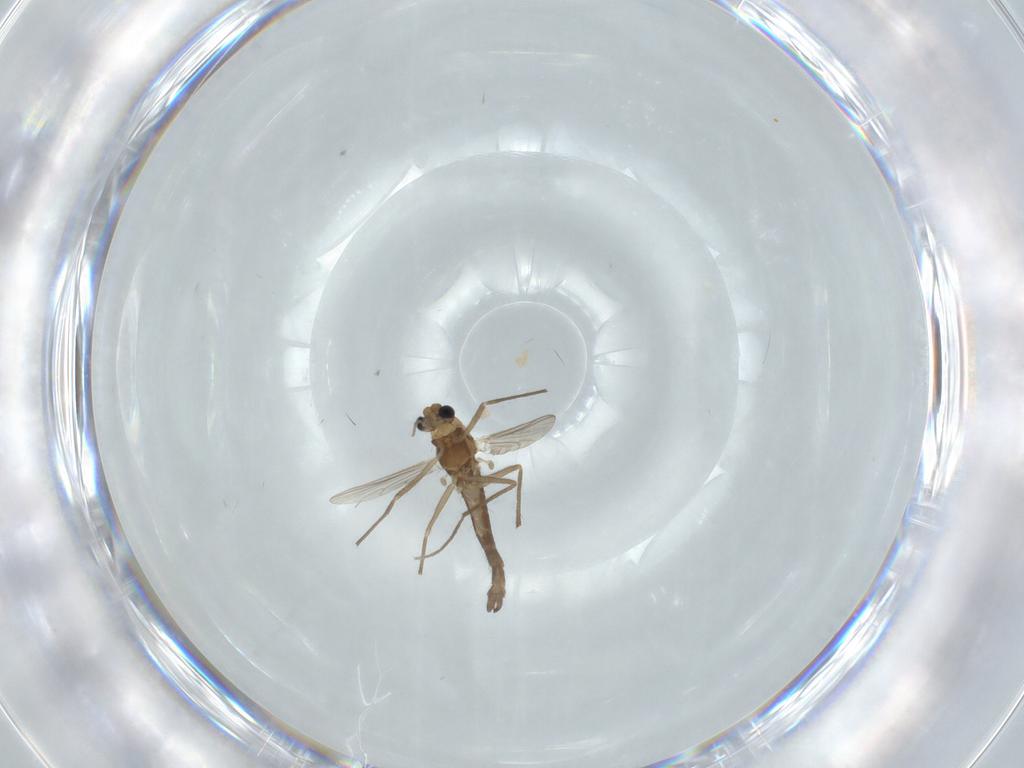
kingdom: Animalia
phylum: Arthropoda
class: Insecta
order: Diptera
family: Chironomidae
